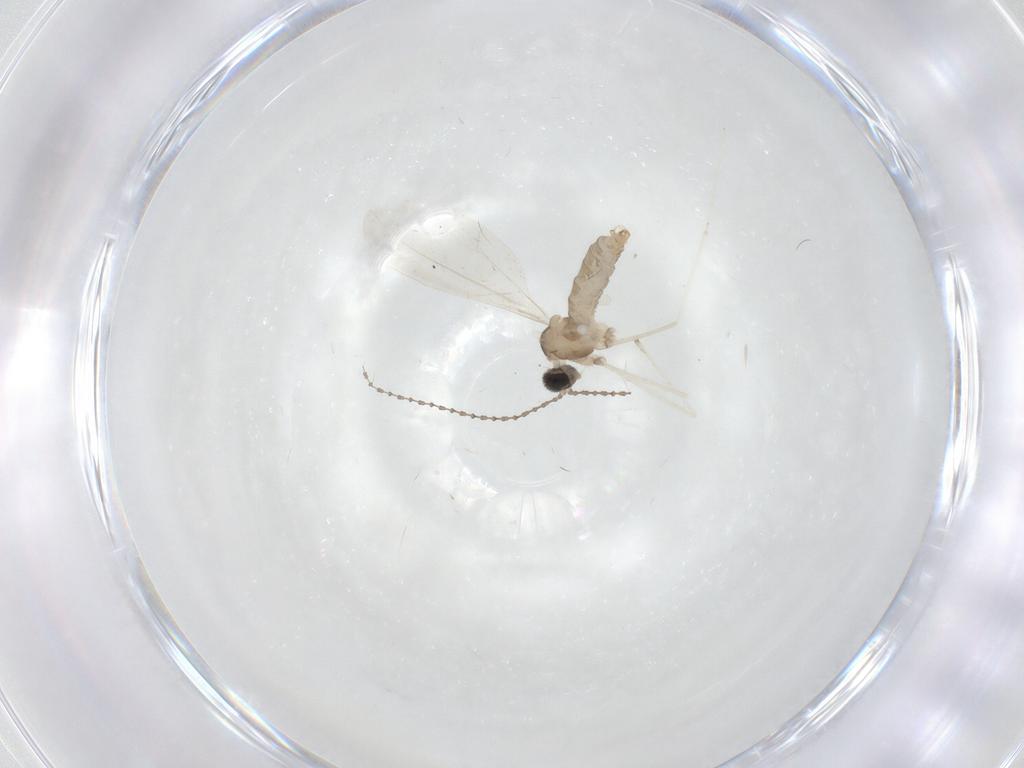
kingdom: Animalia
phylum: Arthropoda
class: Insecta
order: Diptera
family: Cecidomyiidae
